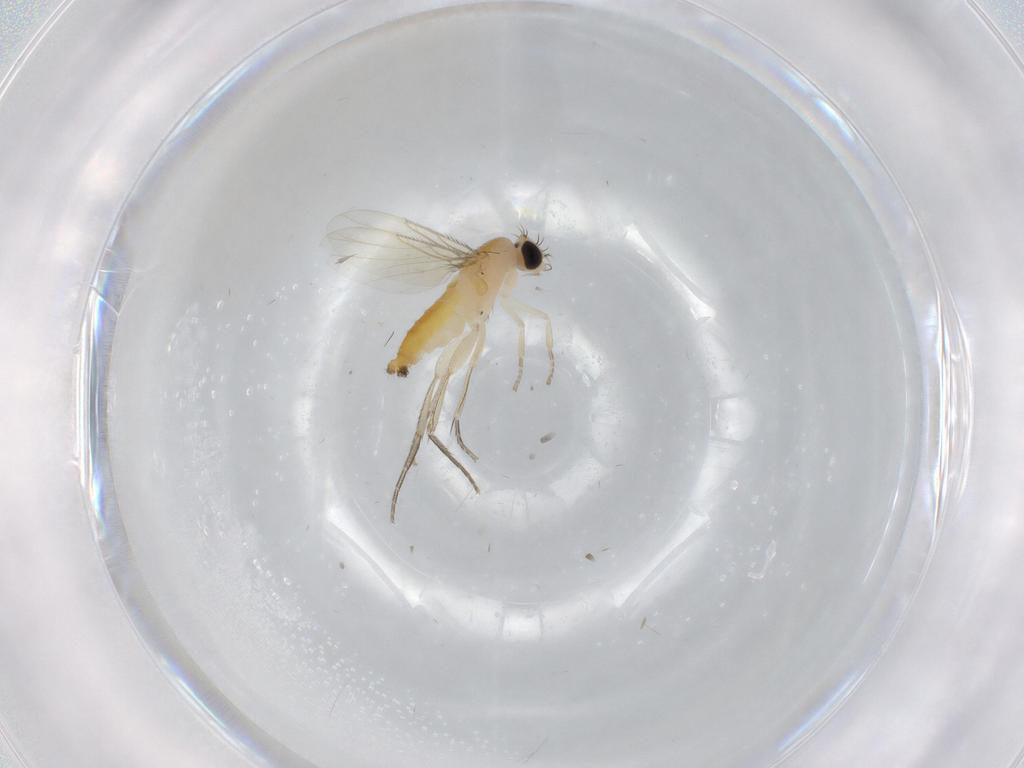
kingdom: Animalia
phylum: Arthropoda
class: Insecta
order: Diptera
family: Phoridae
